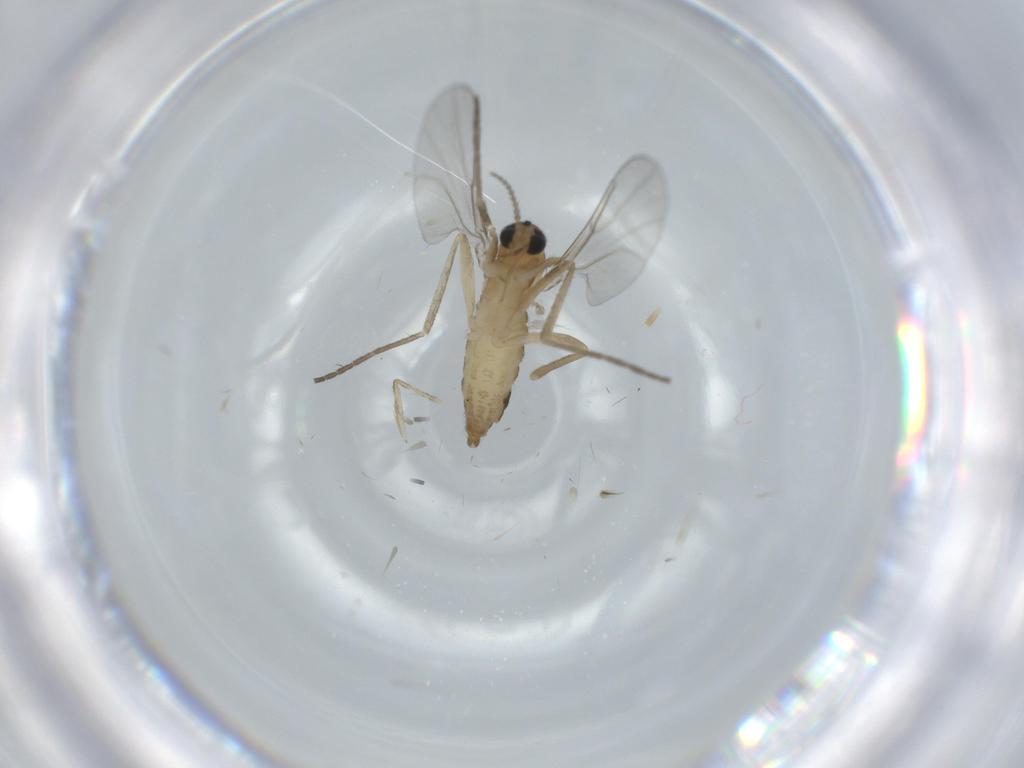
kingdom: Animalia
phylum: Arthropoda
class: Insecta
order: Diptera
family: Cecidomyiidae
